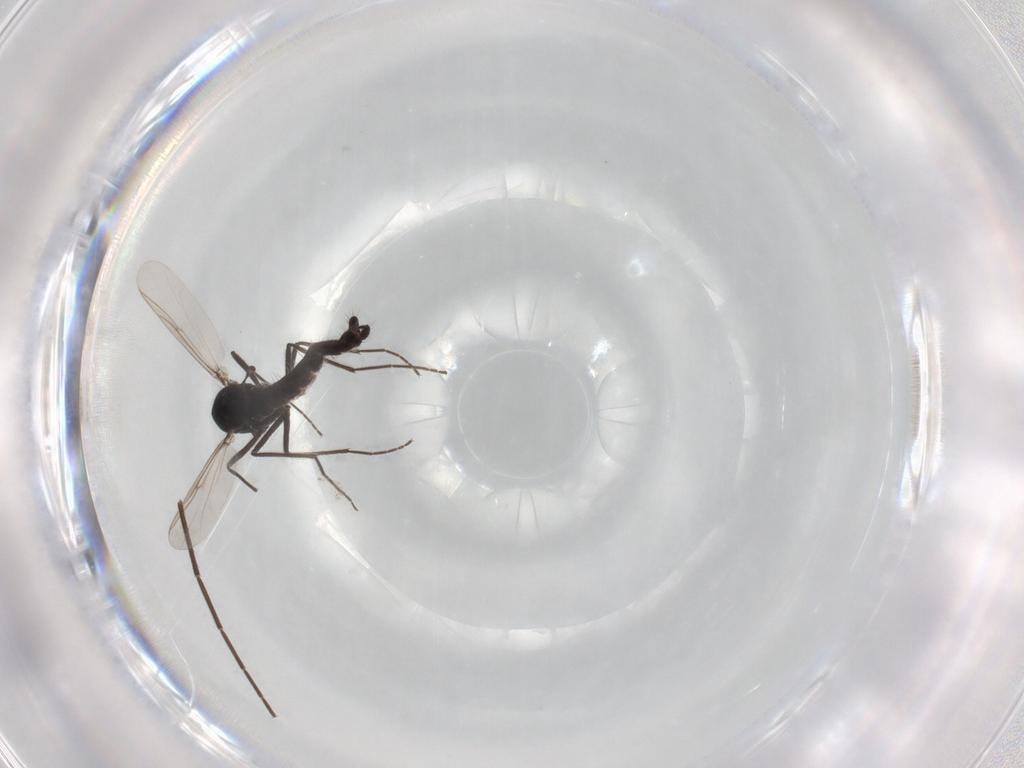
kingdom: Animalia
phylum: Arthropoda
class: Insecta
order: Diptera
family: Chironomidae
